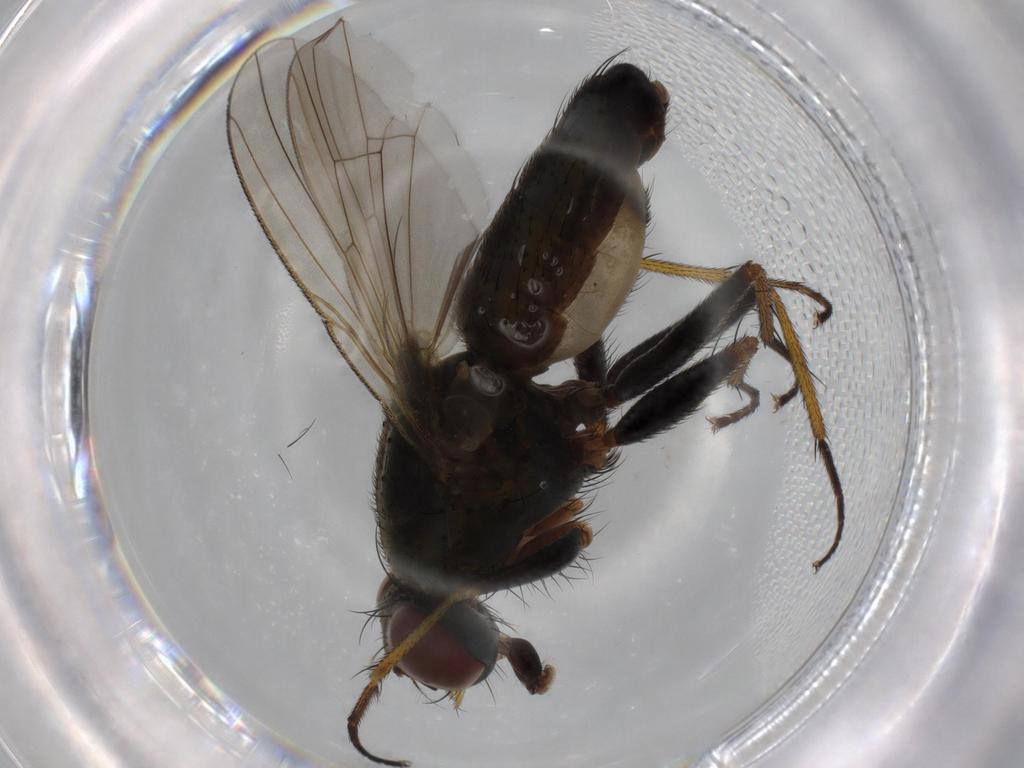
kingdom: Animalia
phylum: Arthropoda
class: Insecta
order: Diptera
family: Muscidae
